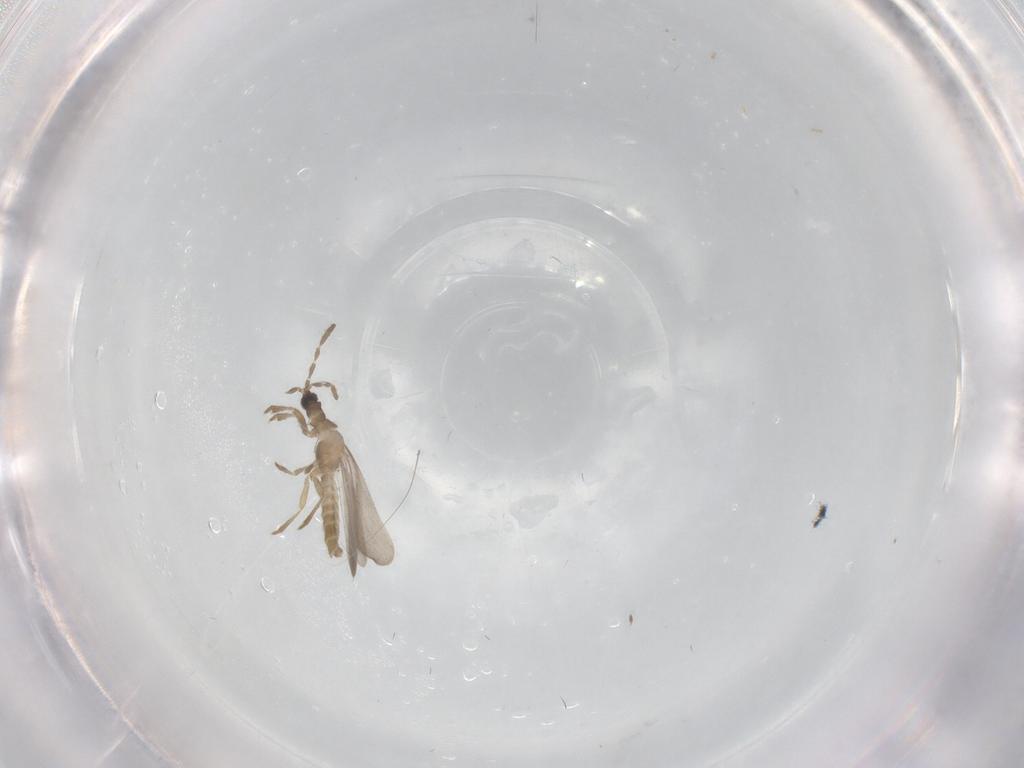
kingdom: Animalia
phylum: Arthropoda
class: Insecta
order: Hemiptera
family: Enicocephalidae
